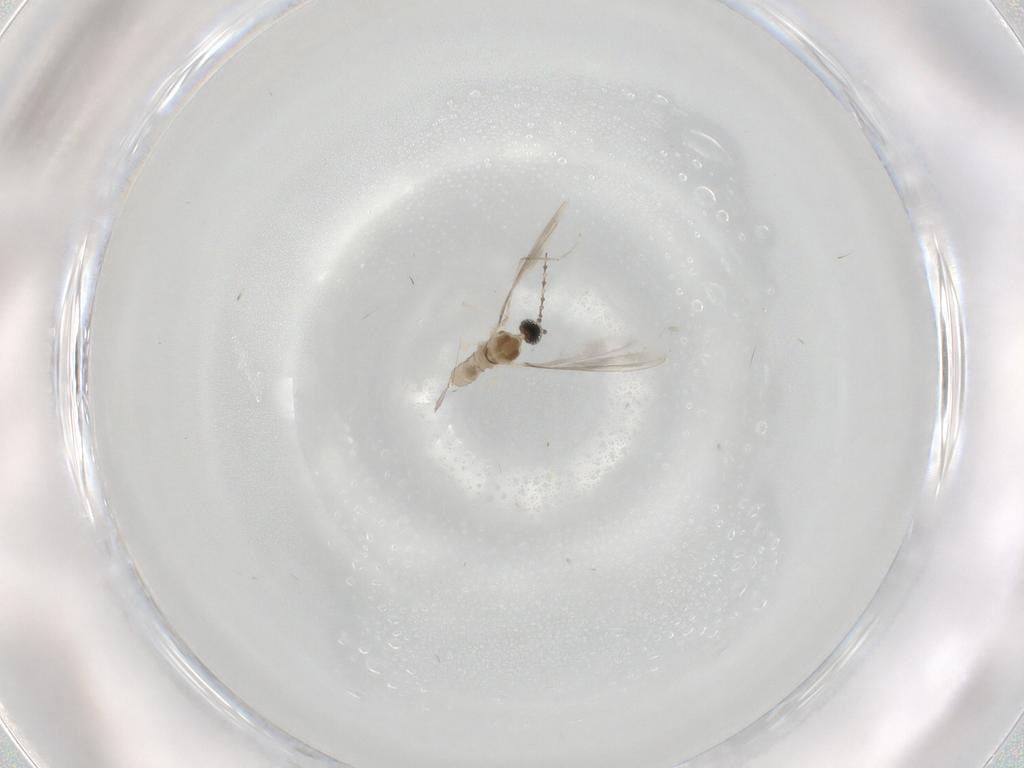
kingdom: Animalia
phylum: Arthropoda
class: Insecta
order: Diptera
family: Cecidomyiidae
